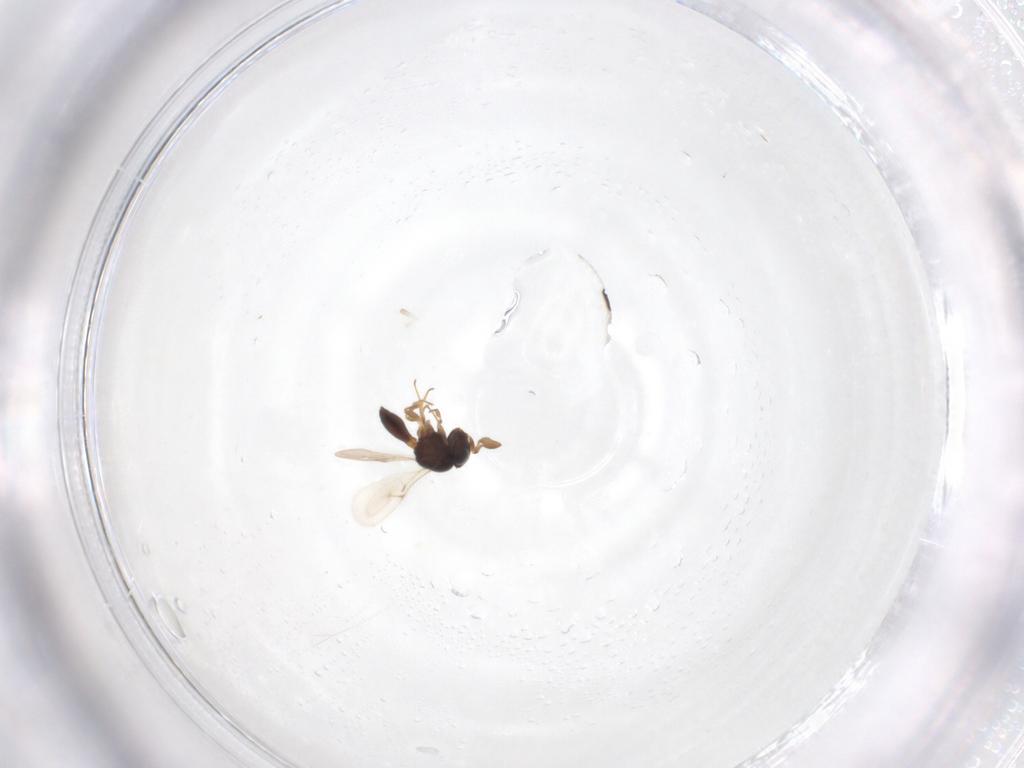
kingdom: Animalia
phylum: Arthropoda
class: Insecta
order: Hymenoptera
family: Scelionidae
